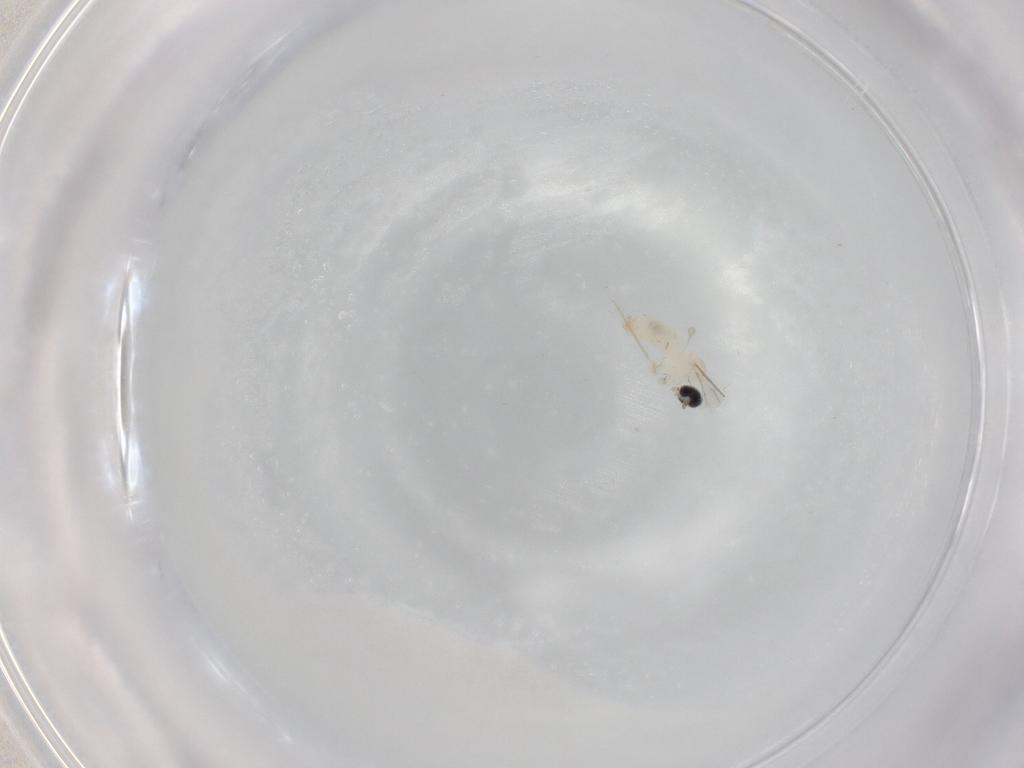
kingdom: Animalia
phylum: Arthropoda
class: Insecta
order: Diptera
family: Cecidomyiidae
